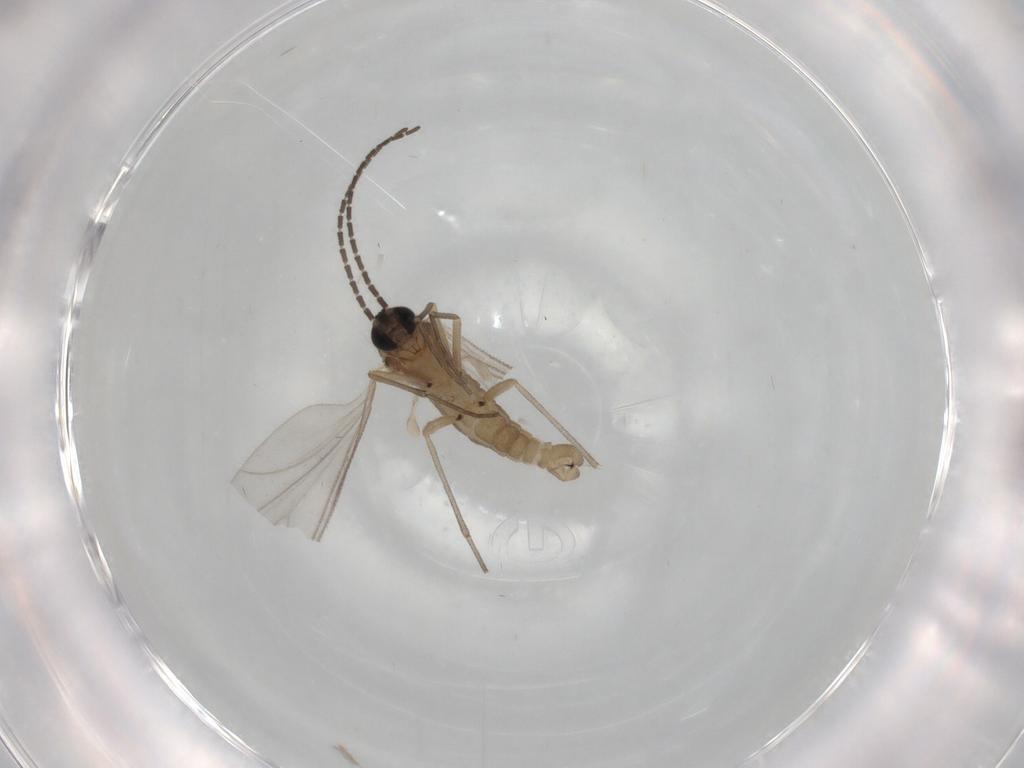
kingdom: Animalia
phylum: Arthropoda
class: Insecta
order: Diptera
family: Sciaridae
